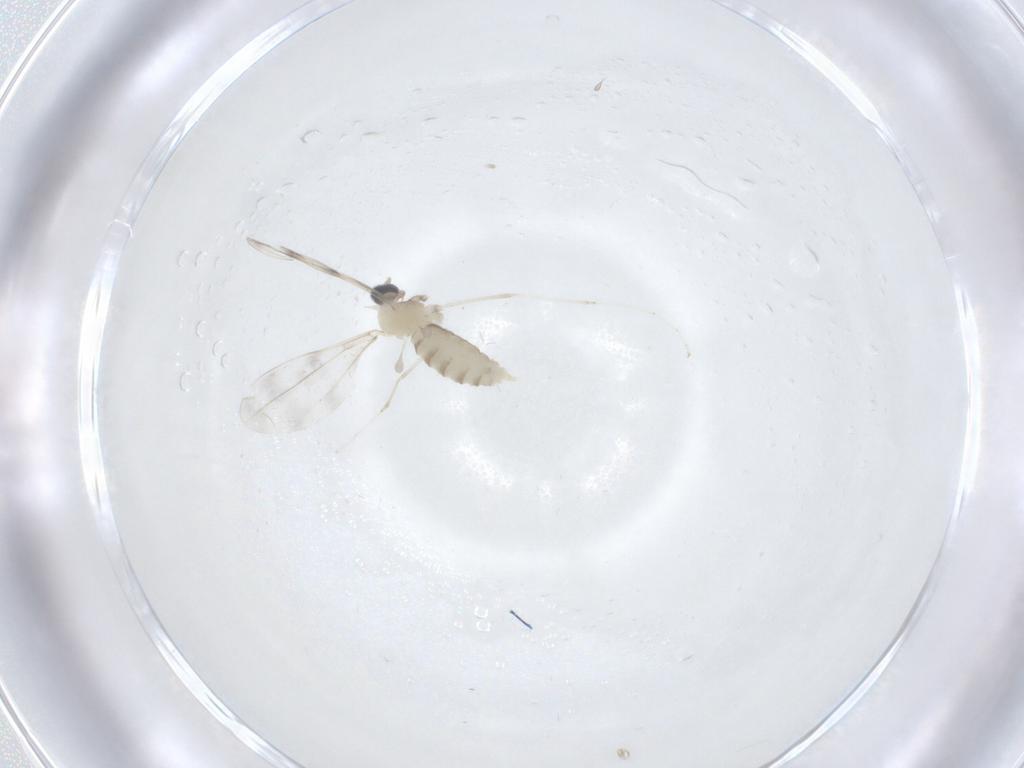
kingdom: Animalia
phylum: Arthropoda
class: Insecta
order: Diptera
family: Cecidomyiidae
